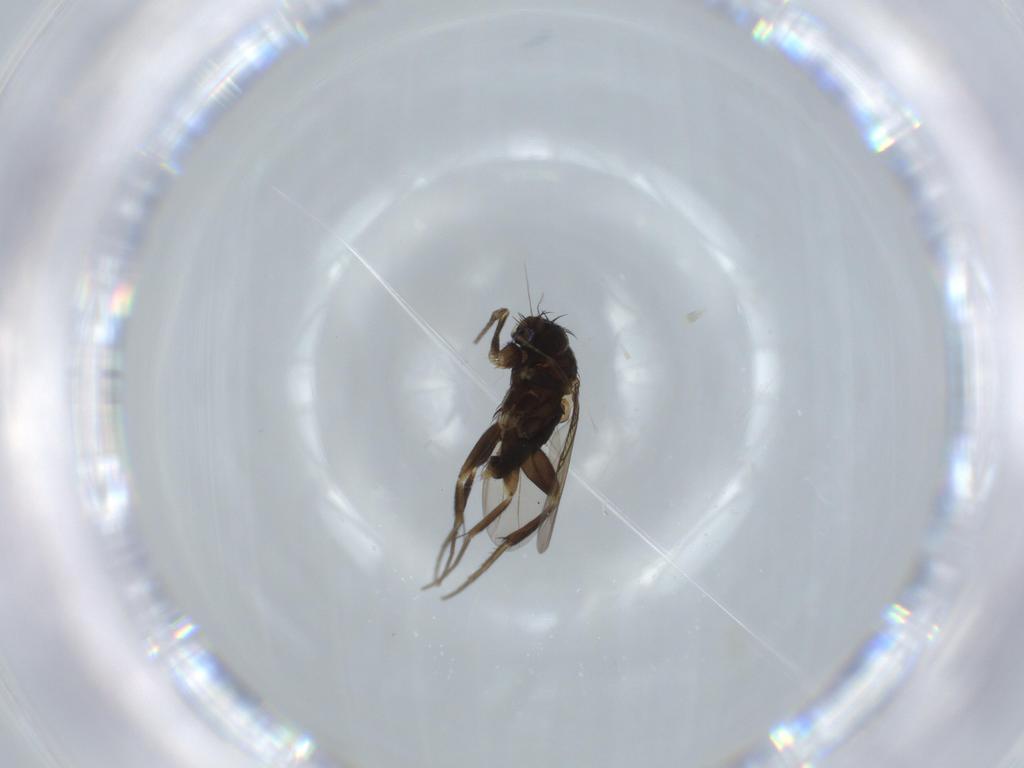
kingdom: Animalia
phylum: Arthropoda
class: Insecta
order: Diptera
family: Phoridae
